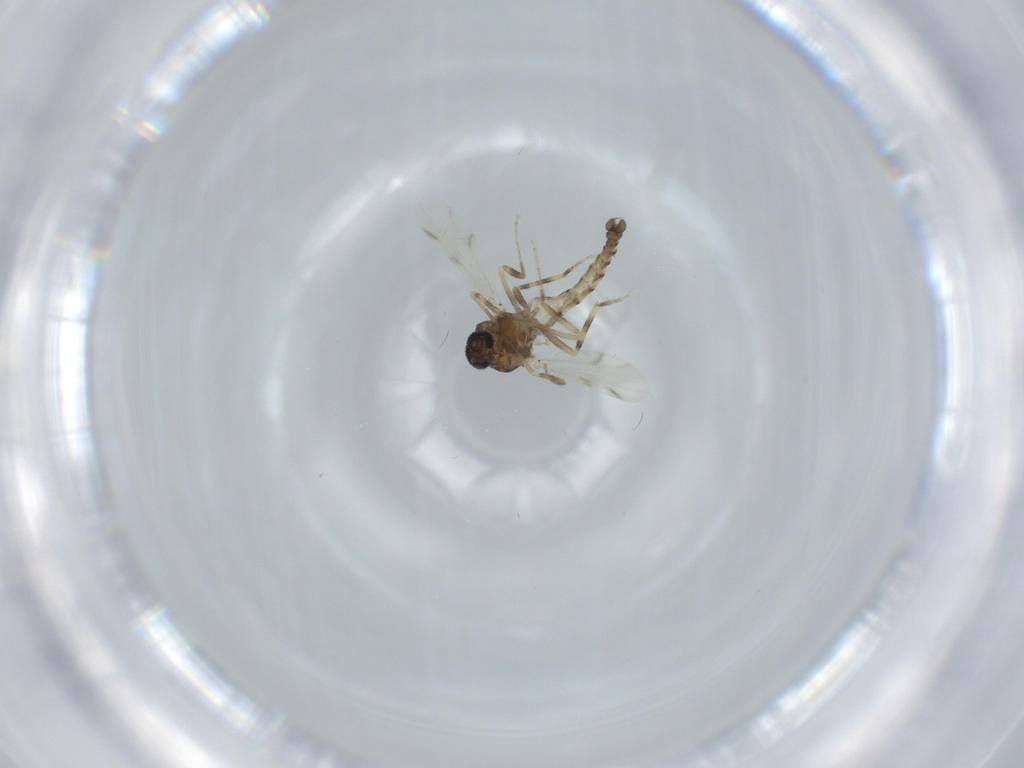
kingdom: Animalia
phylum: Arthropoda
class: Insecta
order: Diptera
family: Ceratopogonidae
